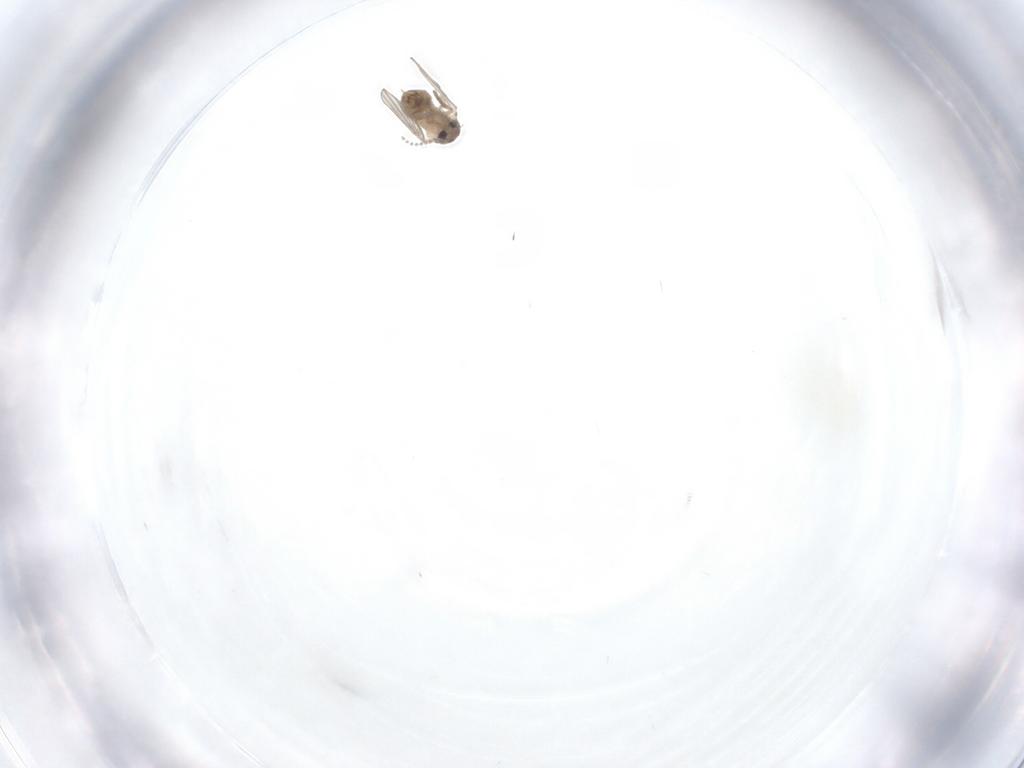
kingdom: Animalia
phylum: Arthropoda
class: Insecta
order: Diptera
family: Psychodidae
